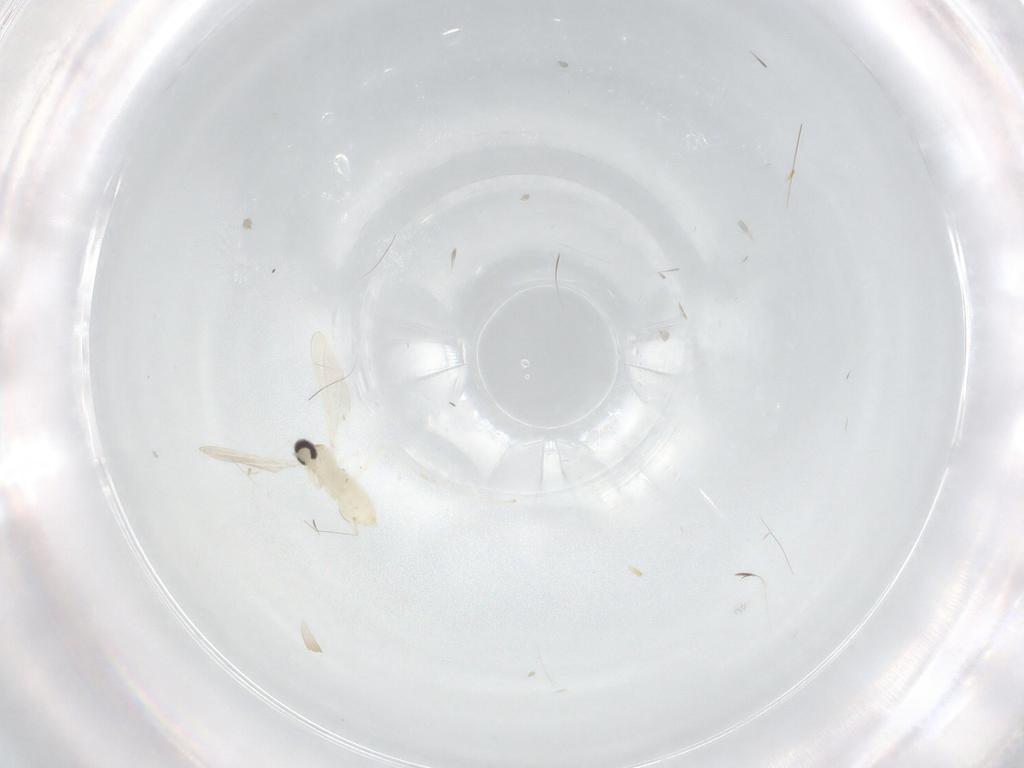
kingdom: Animalia
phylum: Arthropoda
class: Insecta
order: Diptera
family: Cecidomyiidae
